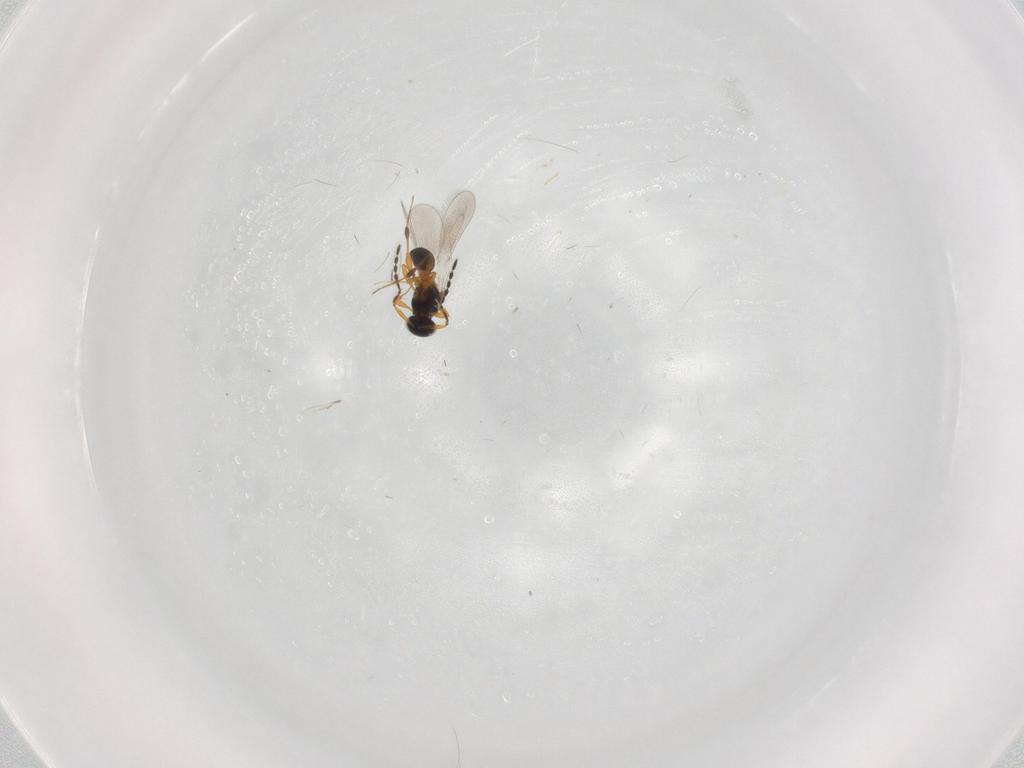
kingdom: Animalia
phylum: Arthropoda
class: Insecta
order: Hymenoptera
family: Platygastridae
